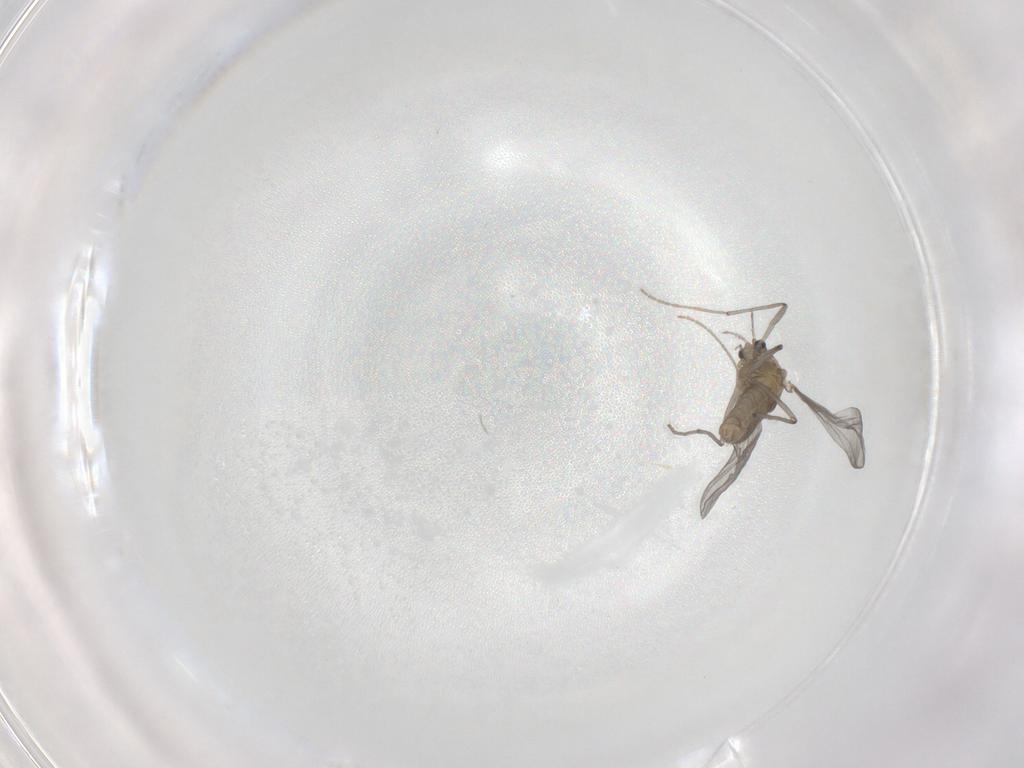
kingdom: Animalia
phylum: Arthropoda
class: Insecta
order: Diptera
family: Chironomidae
